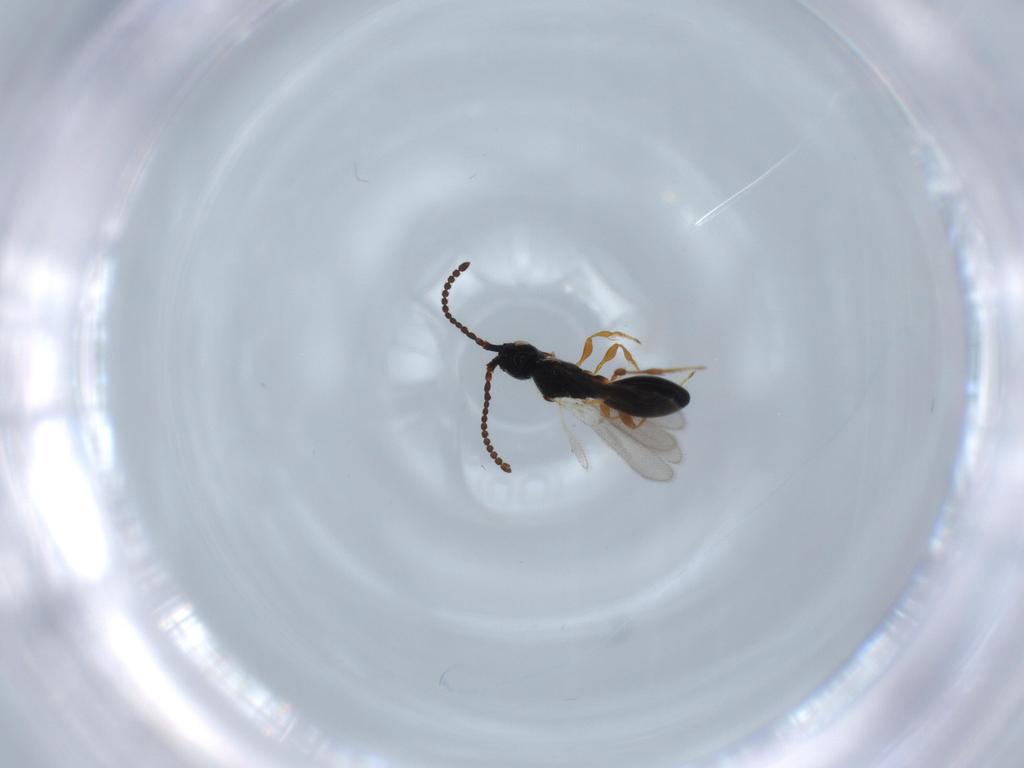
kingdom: Animalia
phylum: Arthropoda
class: Insecta
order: Hymenoptera
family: Diapriidae
